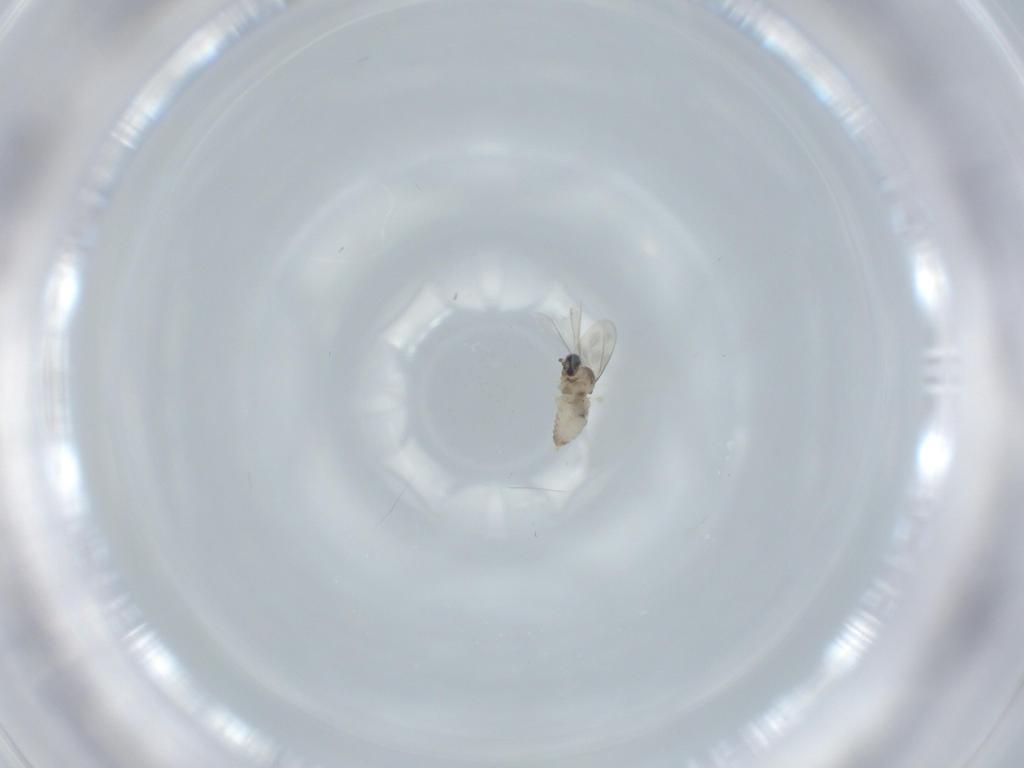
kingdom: Animalia
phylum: Arthropoda
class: Insecta
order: Diptera
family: Cecidomyiidae
